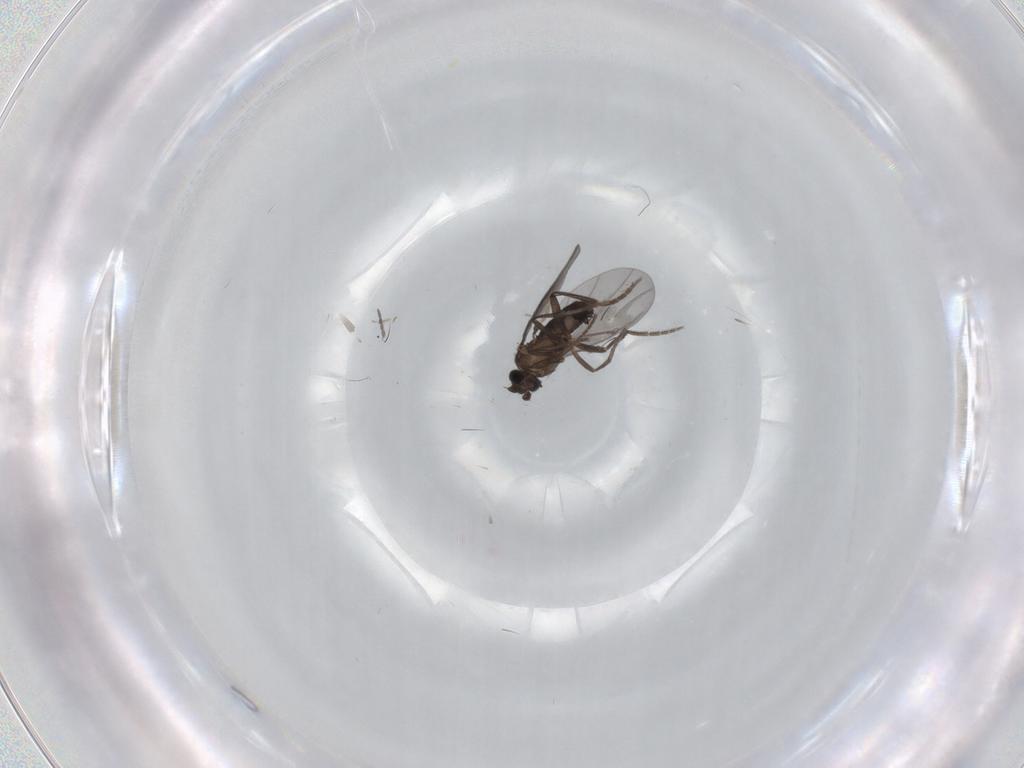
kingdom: Animalia
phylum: Arthropoda
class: Insecta
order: Diptera
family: Phoridae
